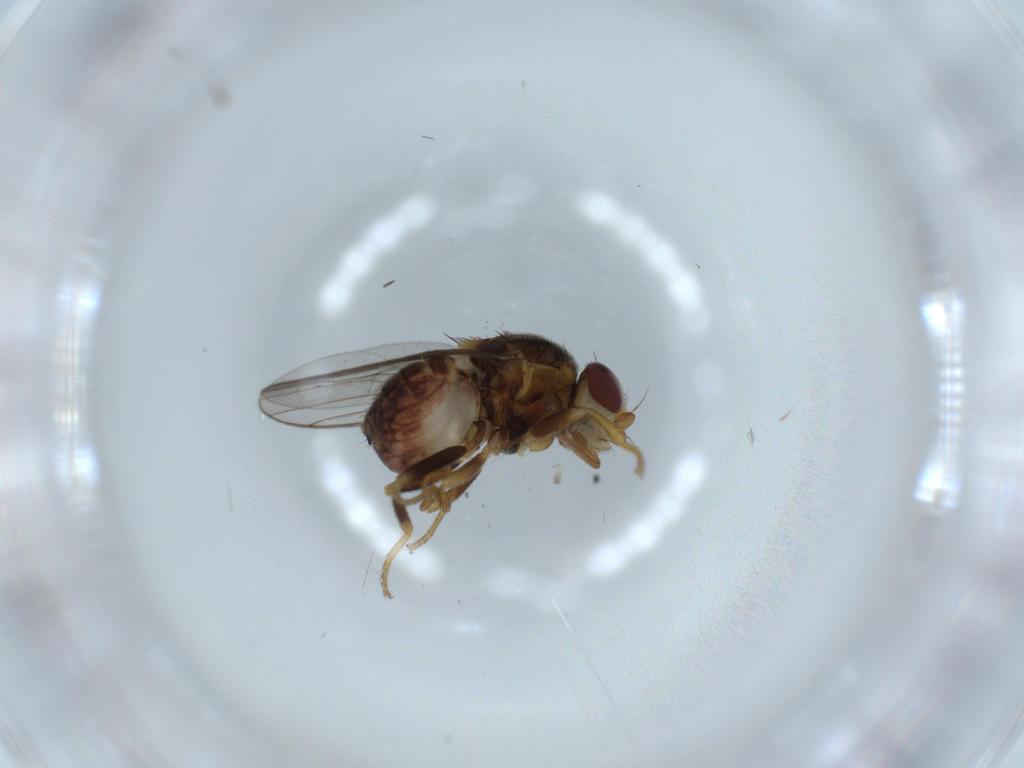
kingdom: Animalia
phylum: Arthropoda
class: Insecta
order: Diptera
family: Chloropidae
